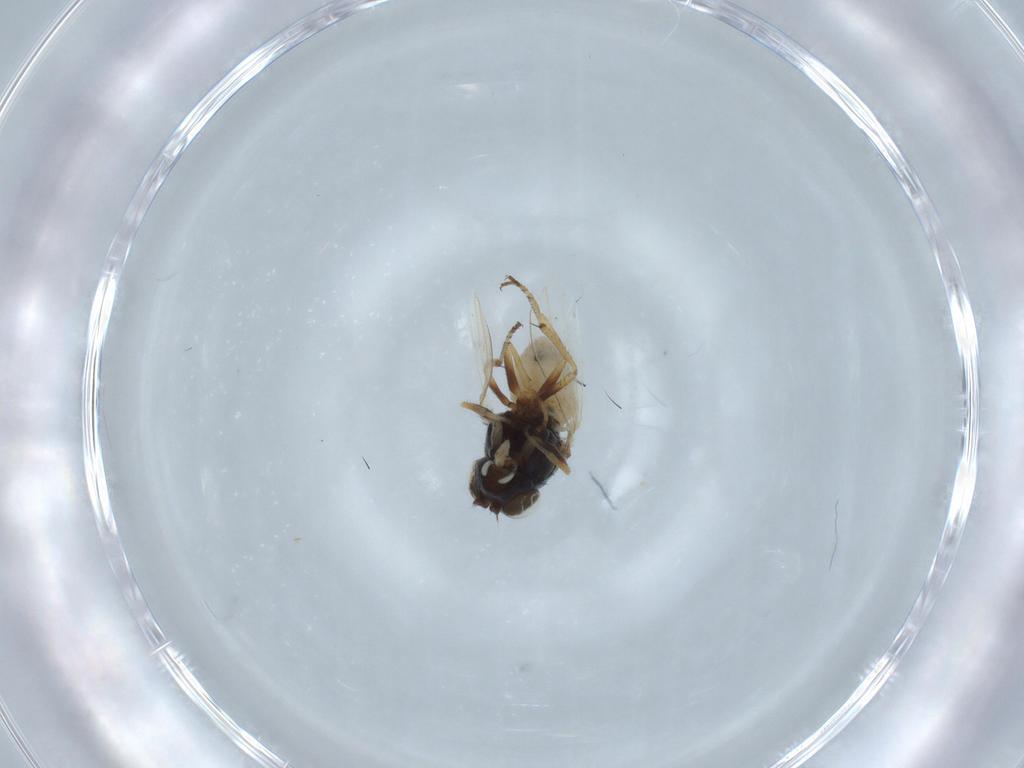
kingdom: Animalia
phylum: Arthropoda
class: Insecta
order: Diptera
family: Ephydridae
